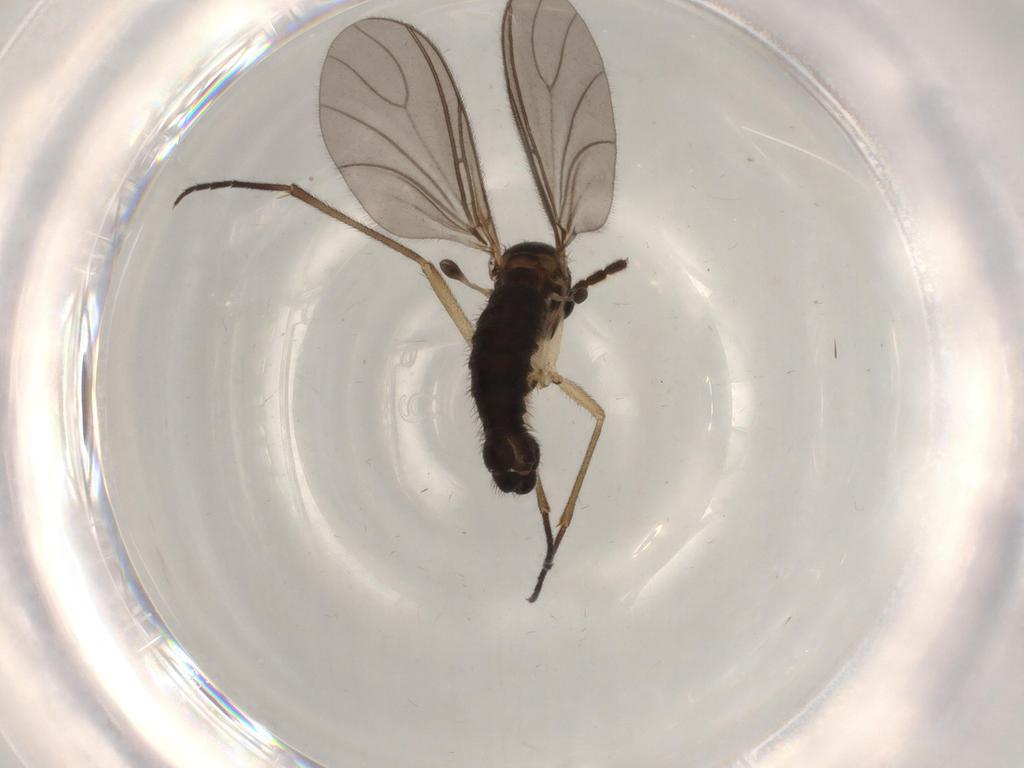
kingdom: Animalia
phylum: Arthropoda
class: Insecta
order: Diptera
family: Sciaridae
